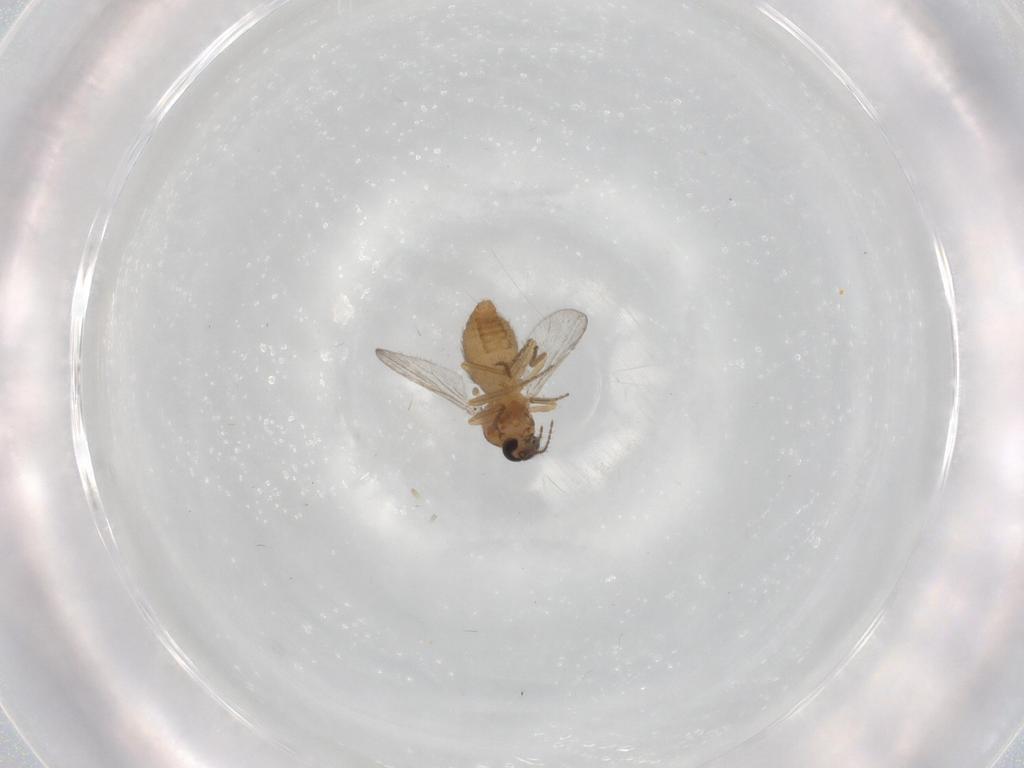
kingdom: Animalia
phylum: Arthropoda
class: Insecta
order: Diptera
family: Ceratopogonidae
